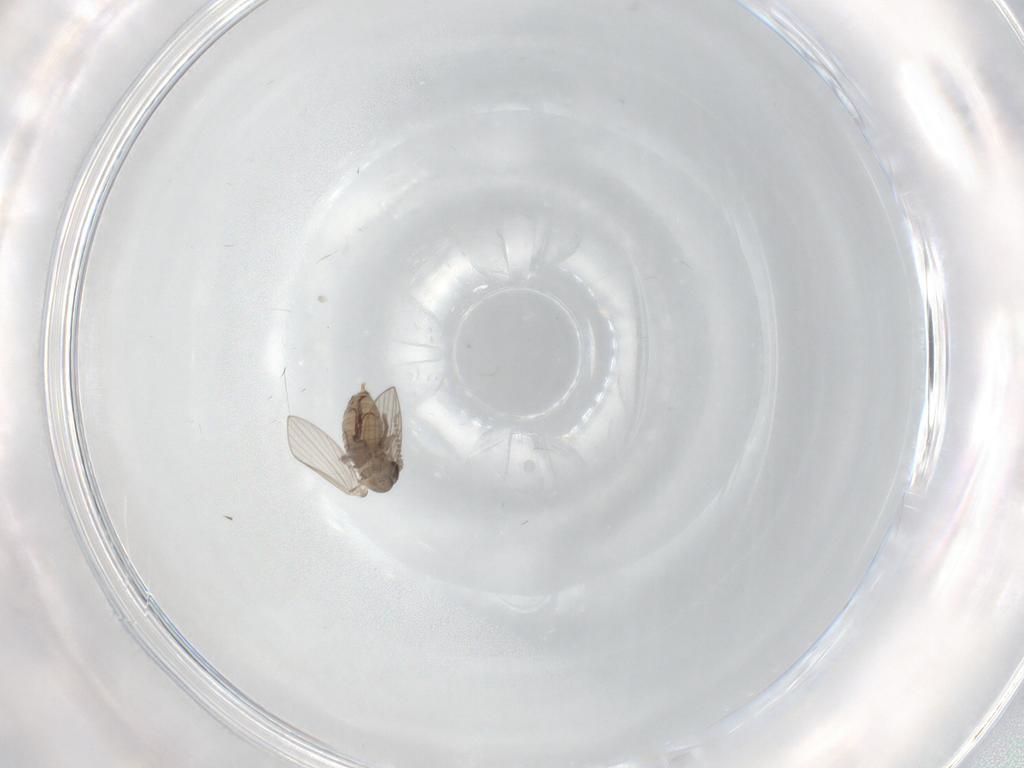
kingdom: Animalia
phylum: Arthropoda
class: Insecta
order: Diptera
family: Psychodidae
